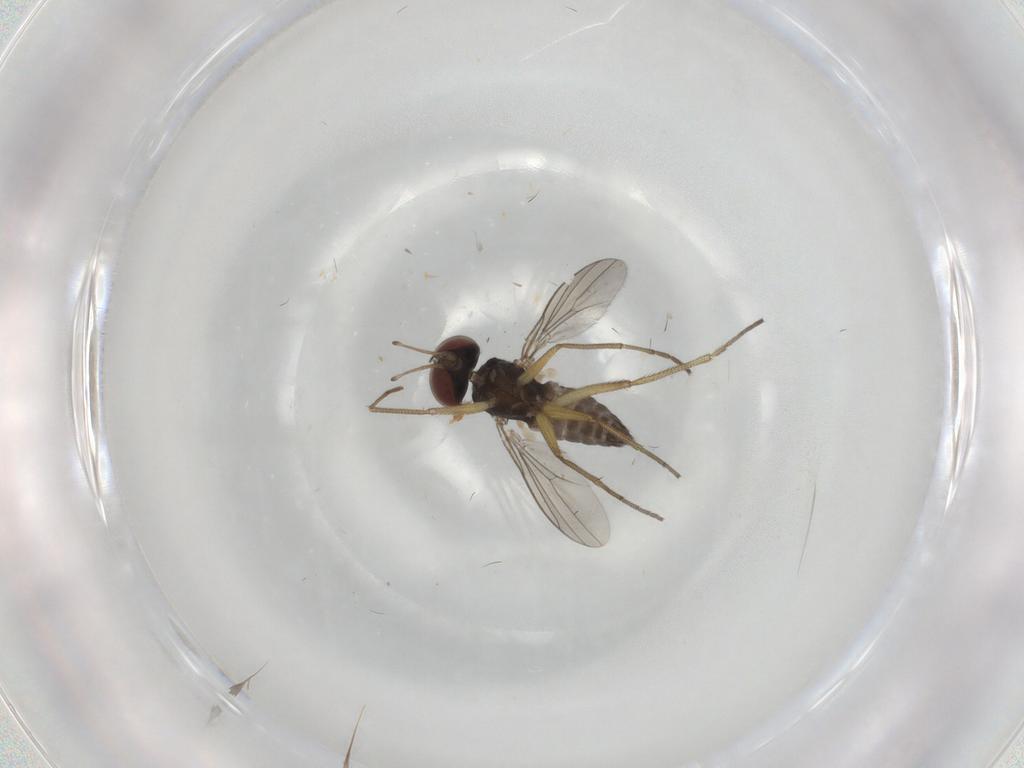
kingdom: Animalia
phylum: Arthropoda
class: Insecta
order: Diptera
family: Dolichopodidae
